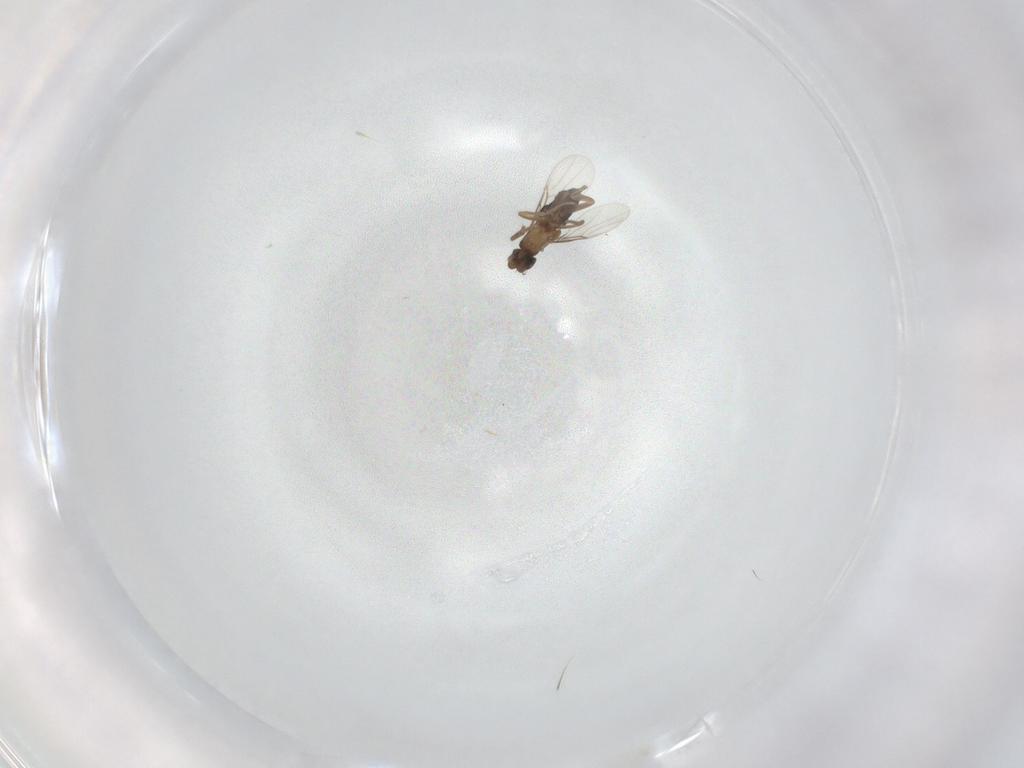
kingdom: Animalia
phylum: Arthropoda
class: Insecta
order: Diptera
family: Phoridae
